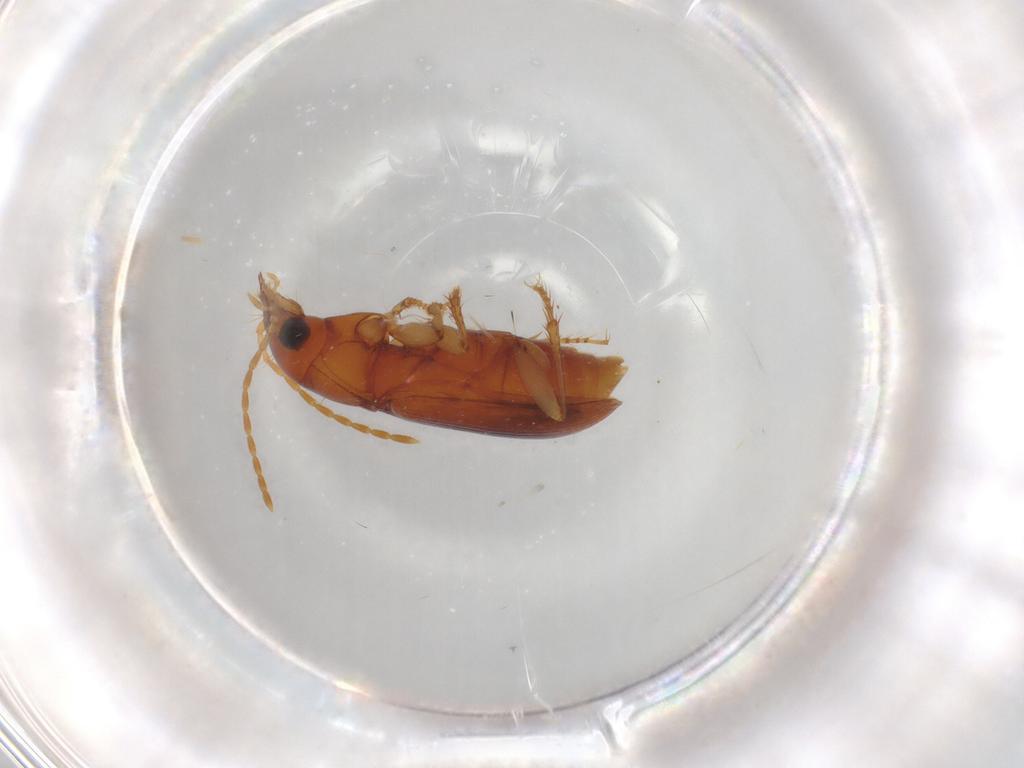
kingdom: Animalia
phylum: Arthropoda
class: Insecta
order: Coleoptera
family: Carabidae
